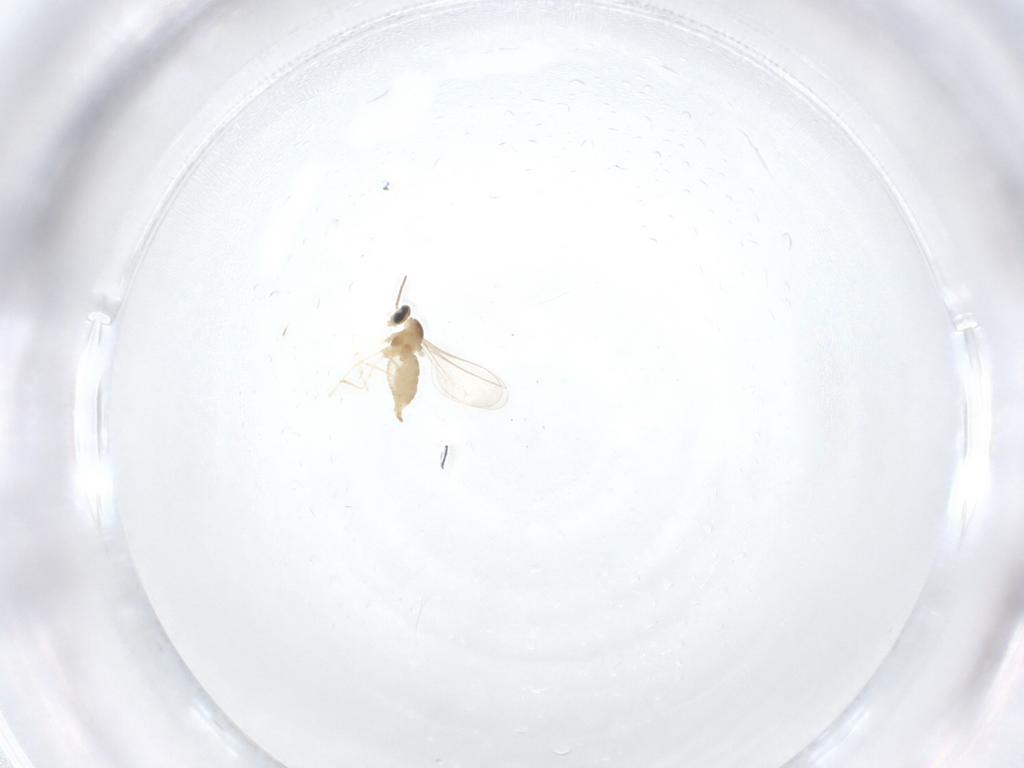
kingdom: Animalia
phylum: Arthropoda
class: Insecta
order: Diptera
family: Cecidomyiidae
